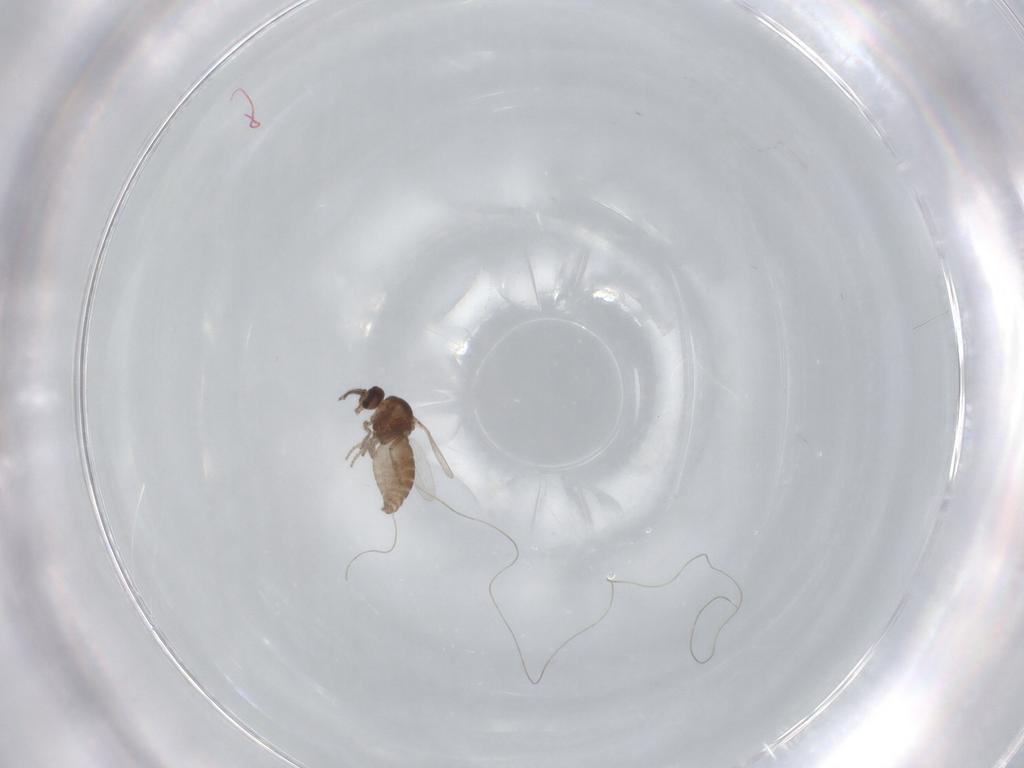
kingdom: Animalia
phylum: Arthropoda
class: Insecta
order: Diptera
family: Ceratopogonidae
